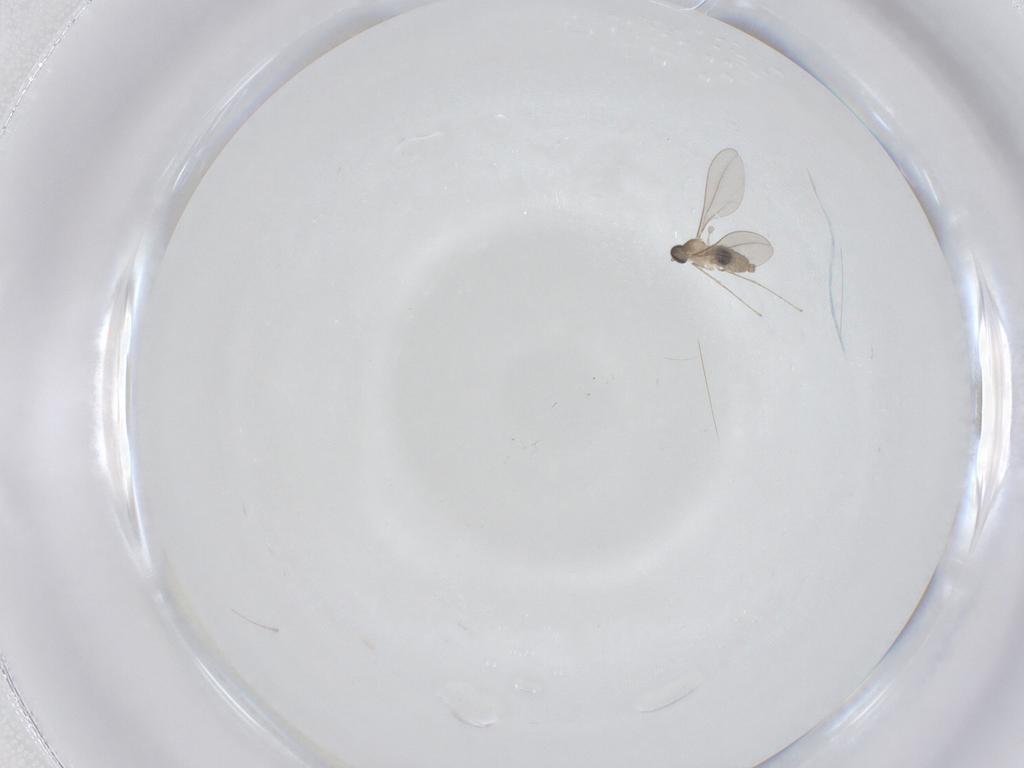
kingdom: Animalia
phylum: Arthropoda
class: Insecta
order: Diptera
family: Sciaridae
